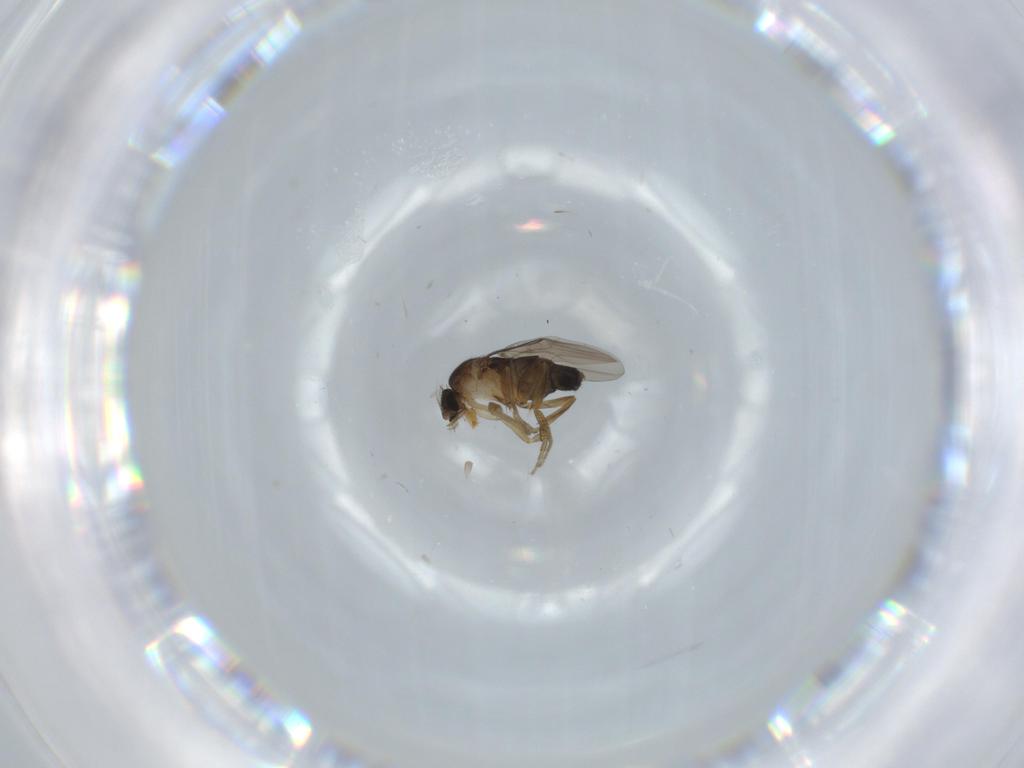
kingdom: Animalia
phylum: Arthropoda
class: Insecta
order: Diptera
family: Phoridae
